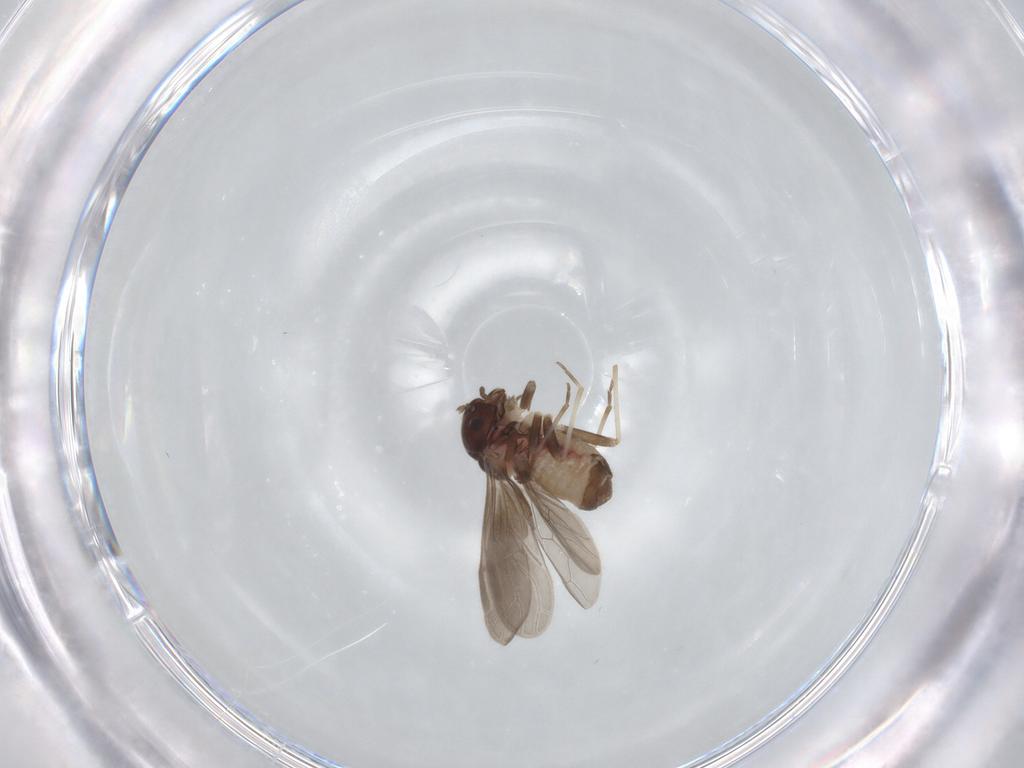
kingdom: Animalia
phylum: Arthropoda
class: Insecta
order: Psocodea
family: Asiopsocidae
